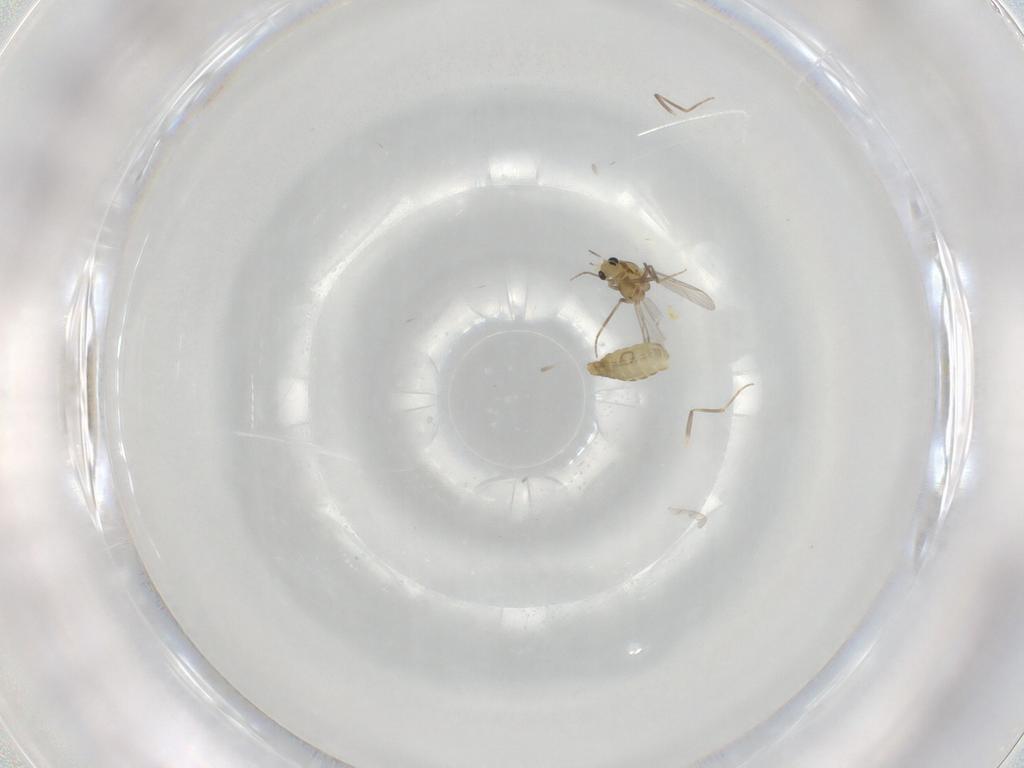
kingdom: Animalia
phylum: Arthropoda
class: Insecta
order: Diptera
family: Chironomidae
